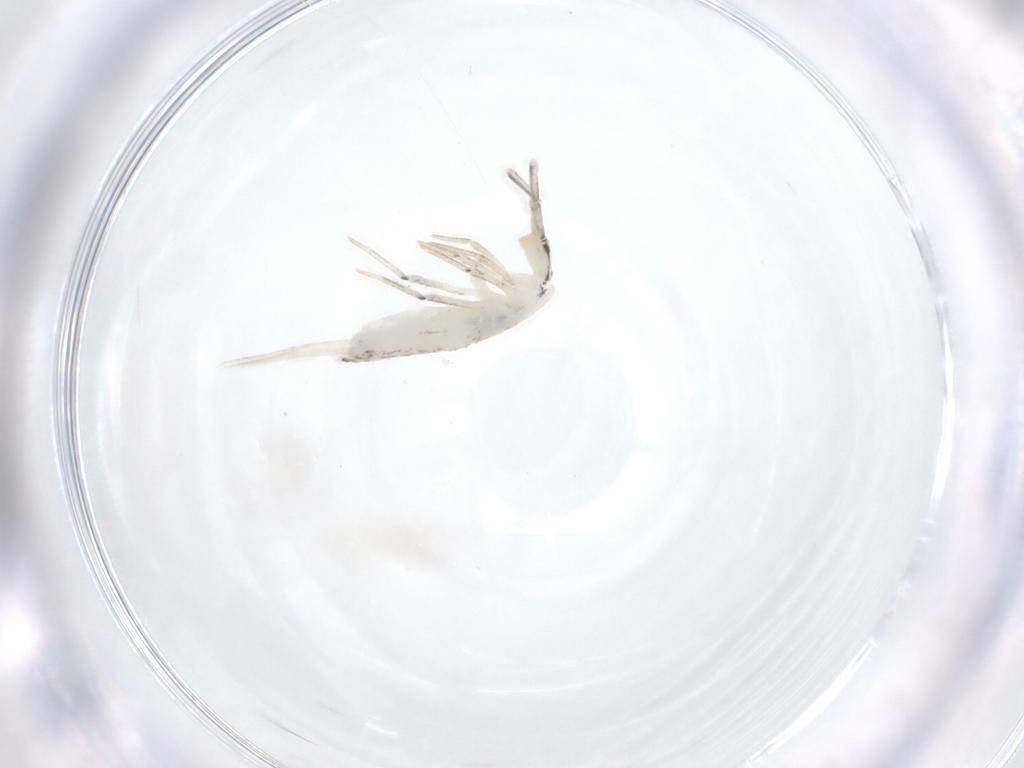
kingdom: Animalia
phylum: Arthropoda
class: Collembola
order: Entomobryomorpha
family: Entomobryidae
